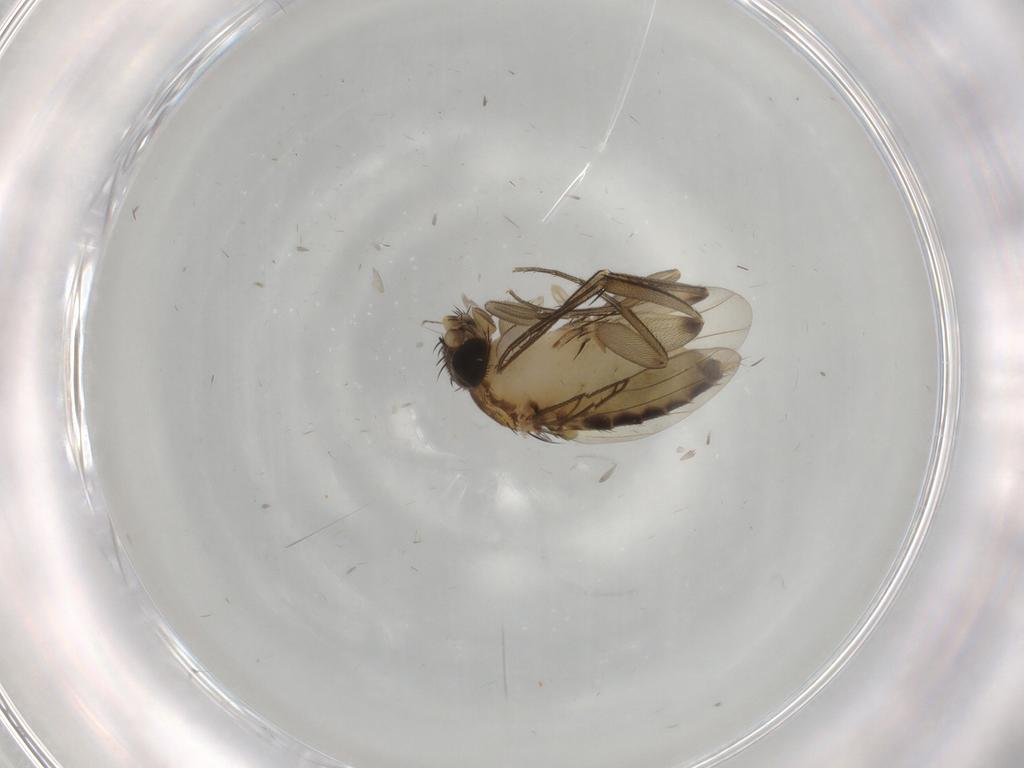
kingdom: Animalia
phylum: Arthropoda
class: Insecta
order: Diptera
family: Phoridae
